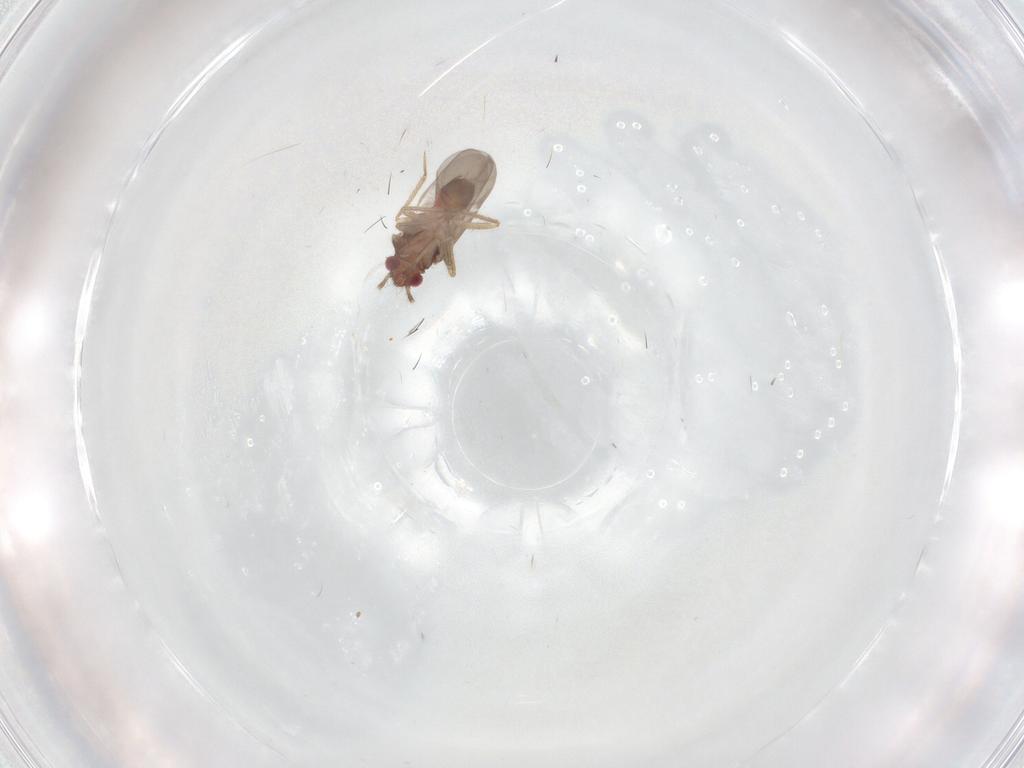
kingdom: Animalia
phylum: Arthropoda
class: Insecta
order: Hemiptera
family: Ceratocombidae
